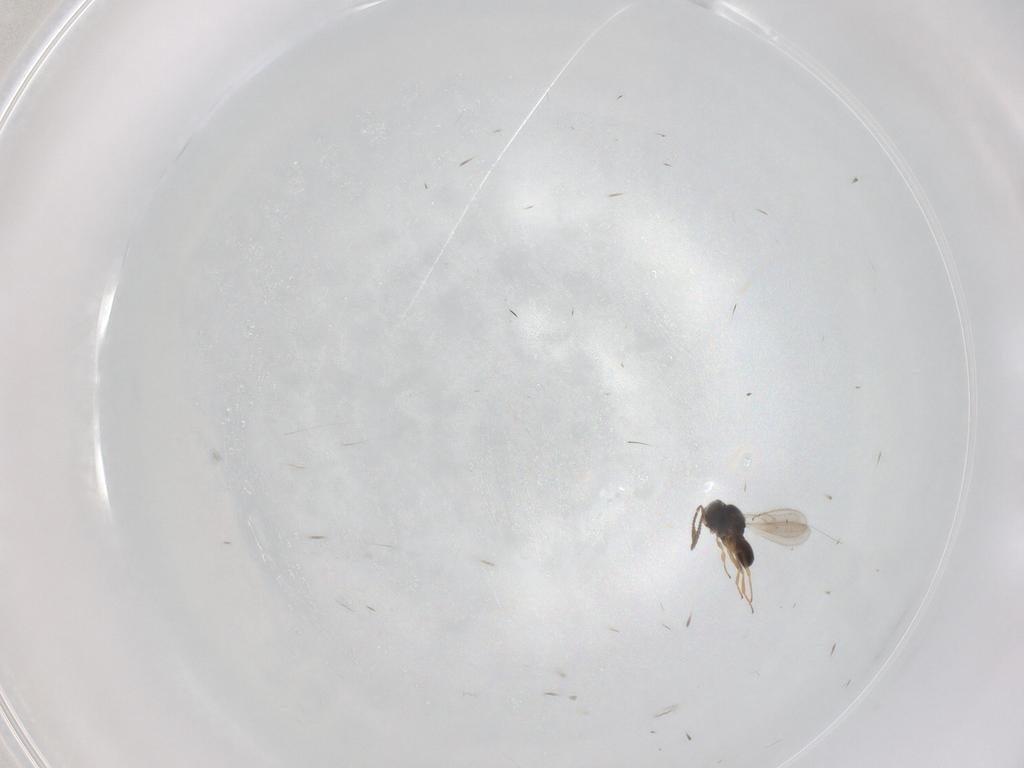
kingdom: Animalia
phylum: Arthropoda
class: Insecta
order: Hymenoptera
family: Scelionidae
